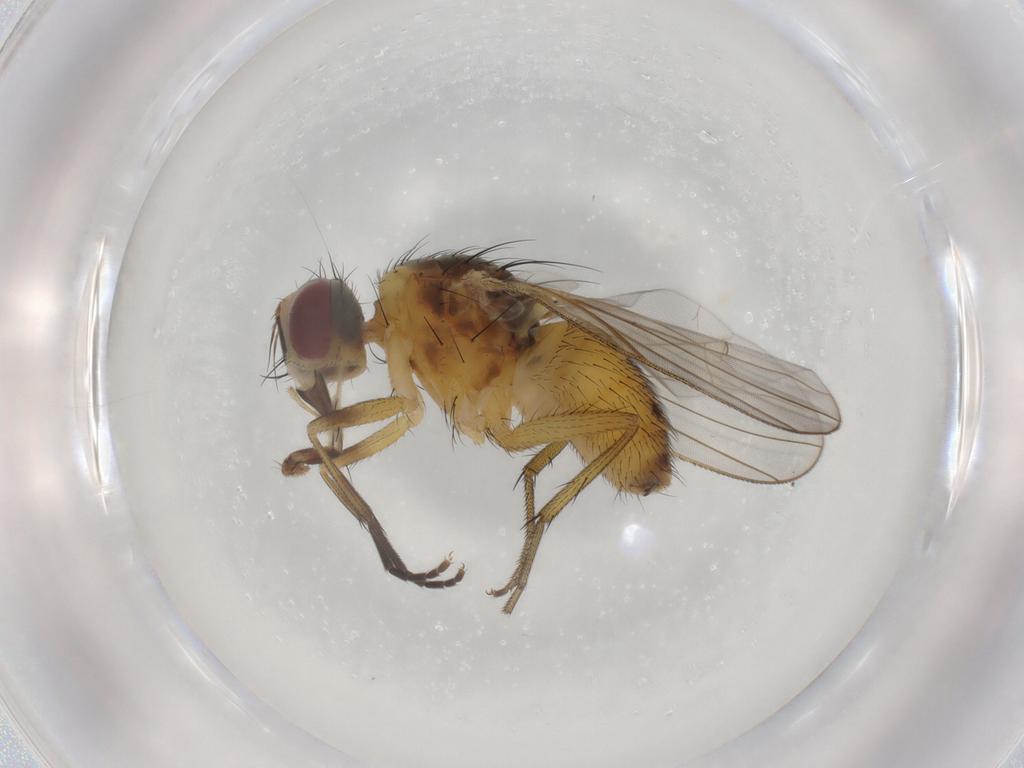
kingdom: Animalia
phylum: Arthropoda
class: Insecta
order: Diptera
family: Muscidae
